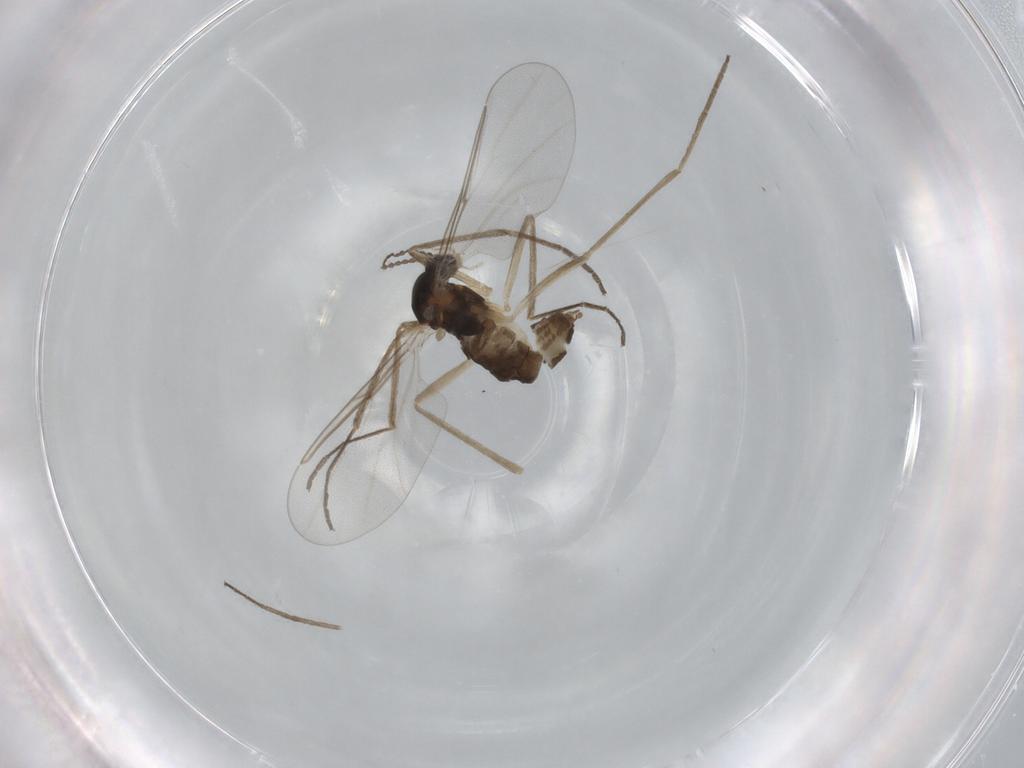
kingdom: Animalia
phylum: Arthropoda
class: Insecta
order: Diptera
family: Cecidomyiidae
